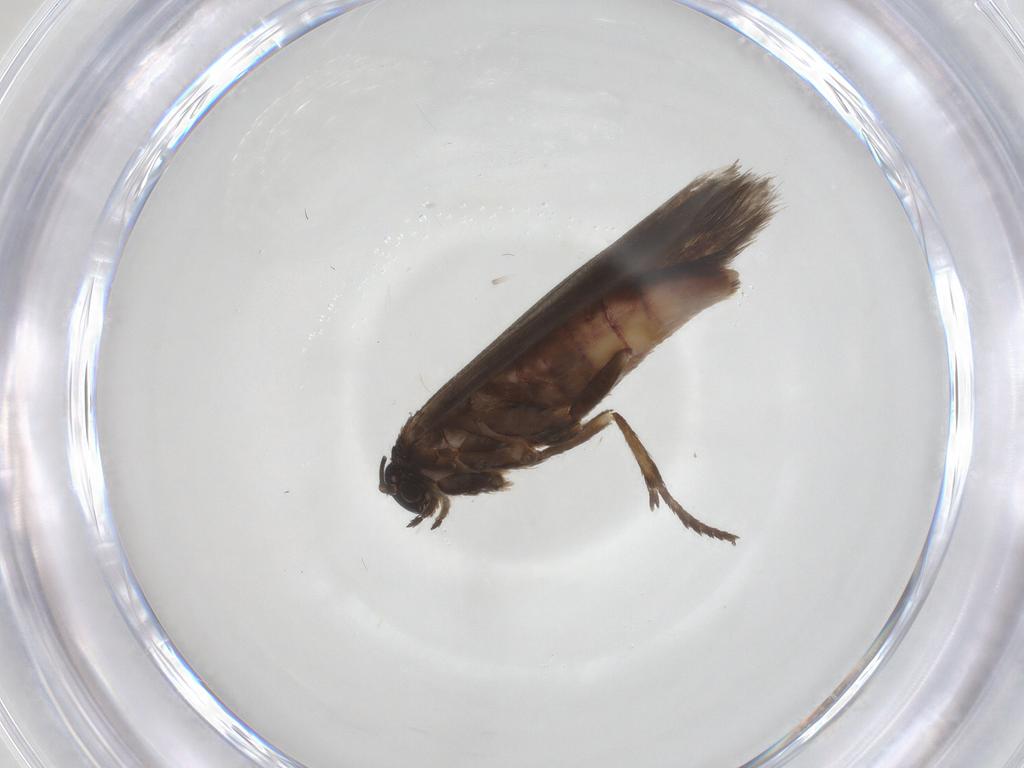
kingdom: Animalia
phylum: Arthropoda
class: Insecta
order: Lepidoptera
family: Scythrididae
